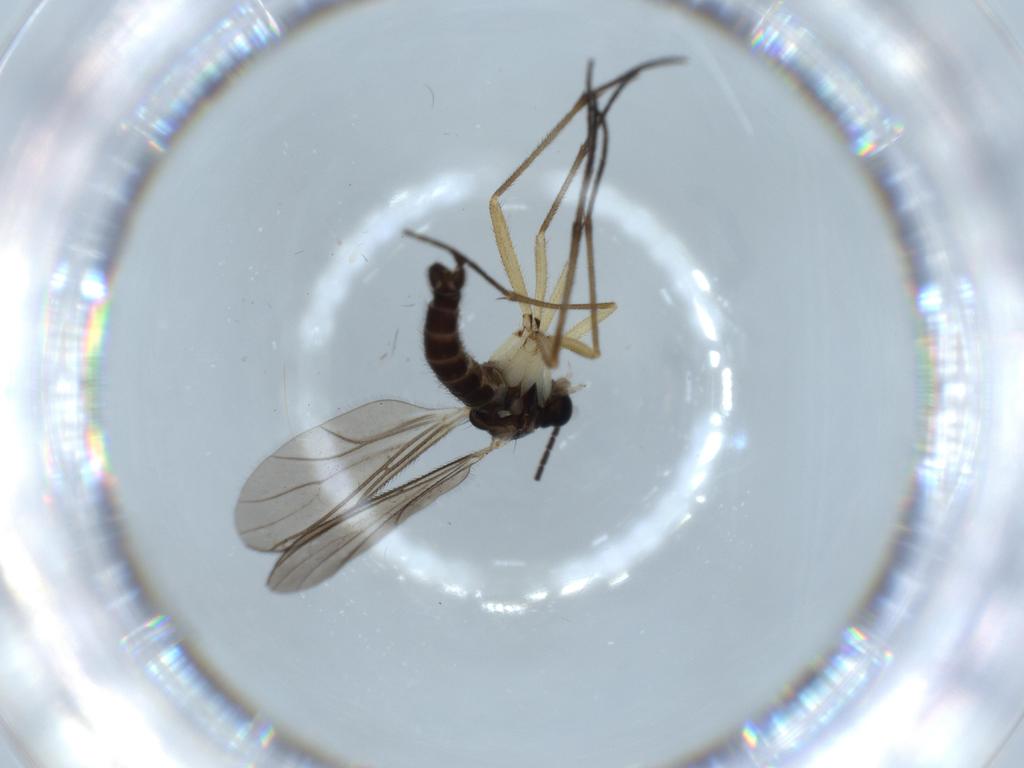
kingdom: Animalia
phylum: Arthropoda
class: Insecta
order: Diptera
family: Sciaridae
